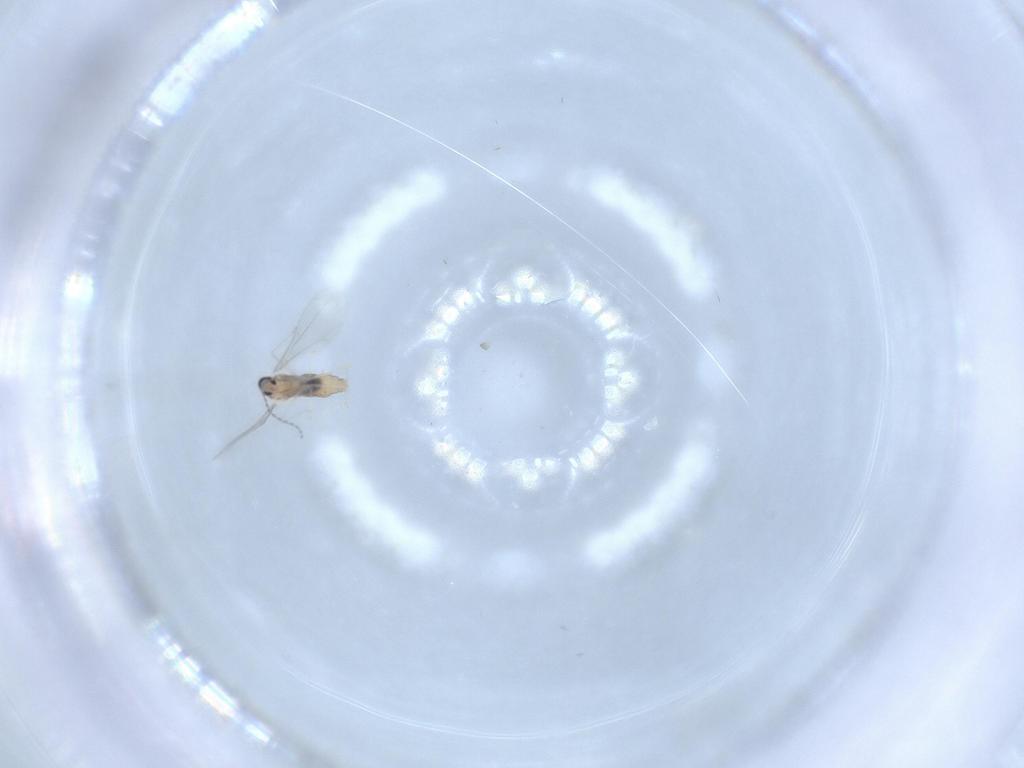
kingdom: Animalia
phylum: Arthropoda
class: Insecta
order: Diptera
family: Cecidomyiidae
